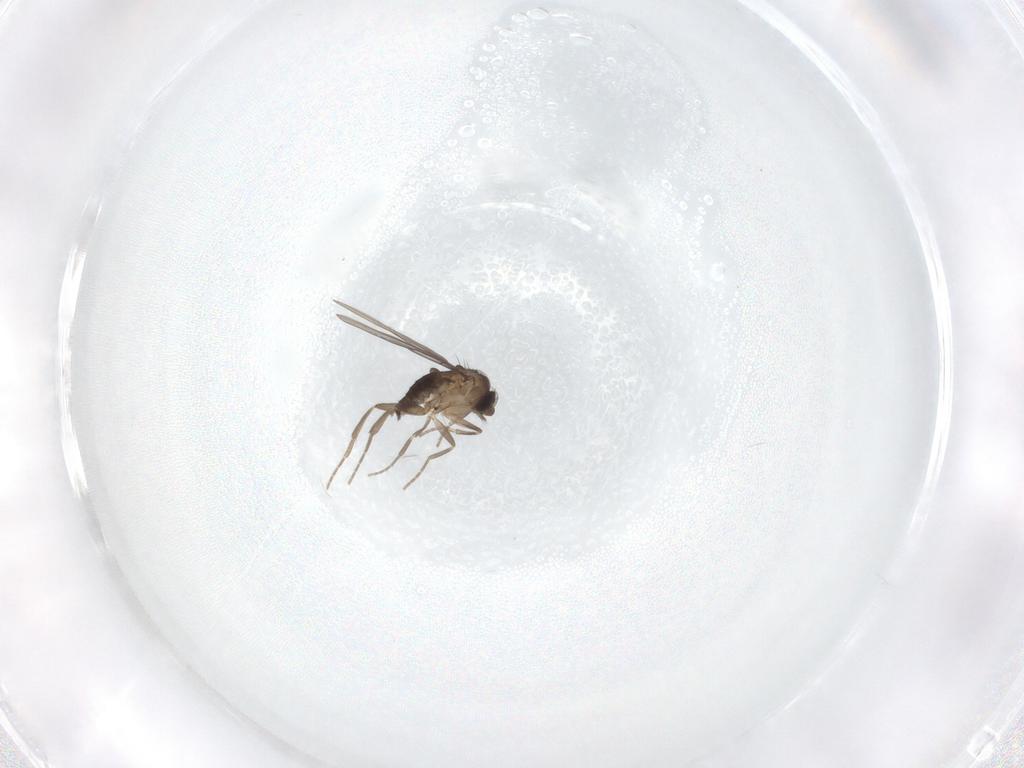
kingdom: Animalia
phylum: Arthropoda
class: Insecta
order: Diptera
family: Phoridae
